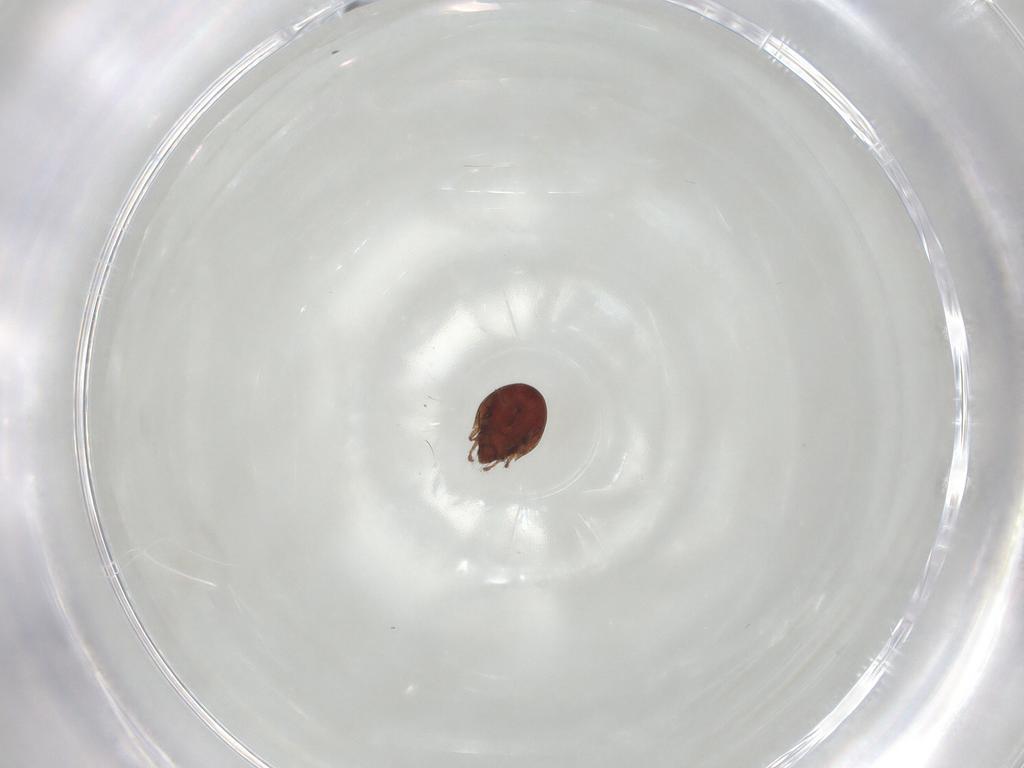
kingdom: Animalia
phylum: Arthropoda
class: Arachnida
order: Sarcoptiformes
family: Ceratozetidae
